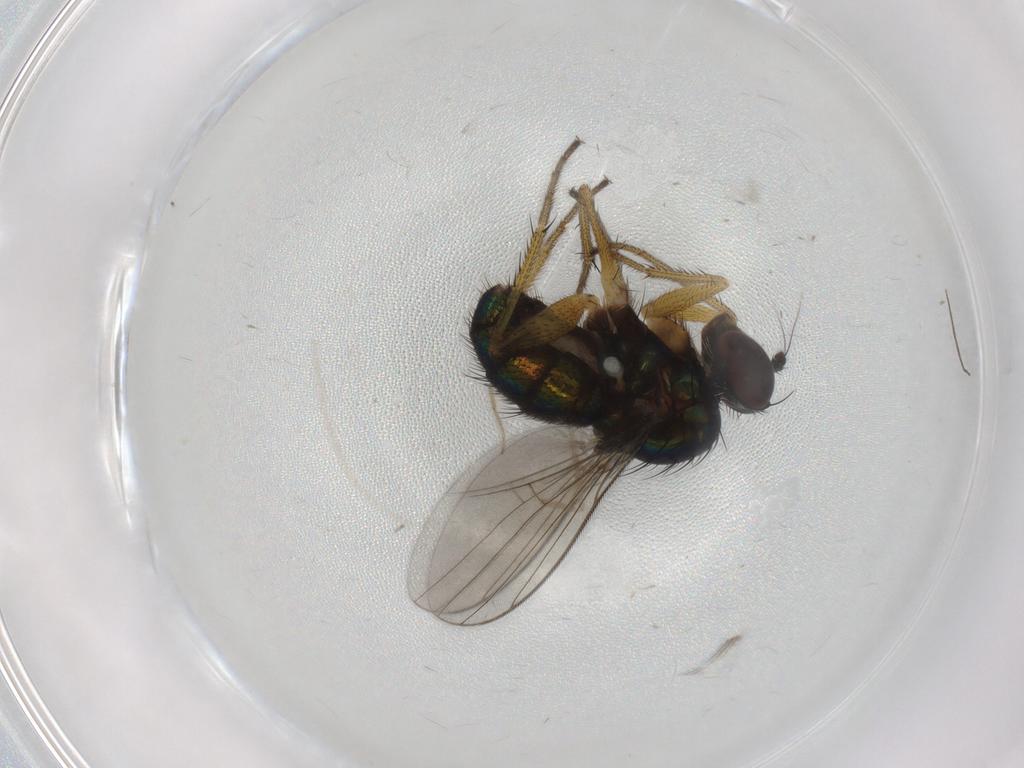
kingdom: Animalia
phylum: Arthropoda
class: Insecta
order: Diptera
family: Dolichopodidae
